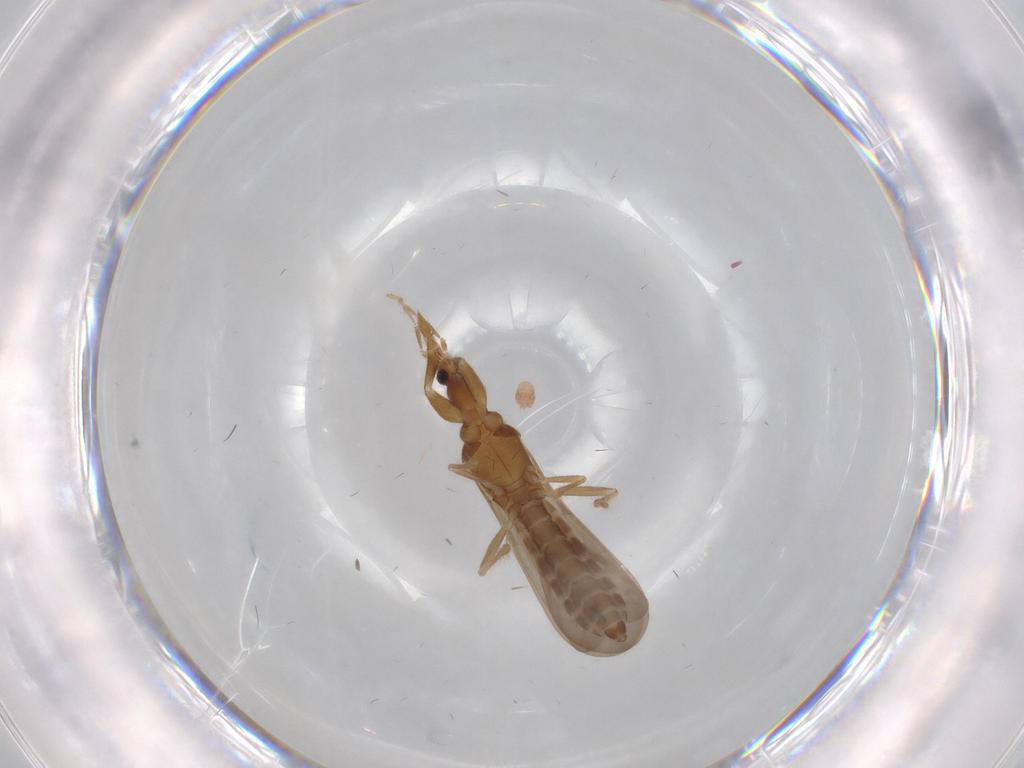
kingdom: Animalia
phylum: Arthropoda
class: Insecta
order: Hemiptera
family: Enicocephalidae
